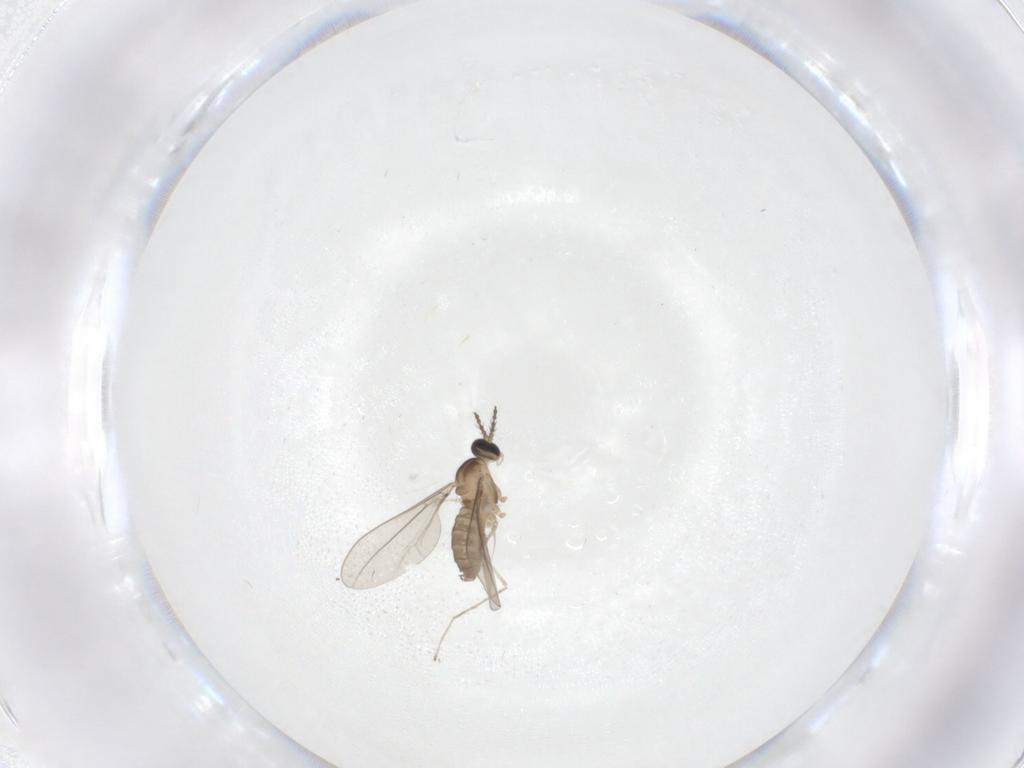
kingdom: Animalia
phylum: Arthropoda
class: Insecta
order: Diptera
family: Cecidomyiidae
